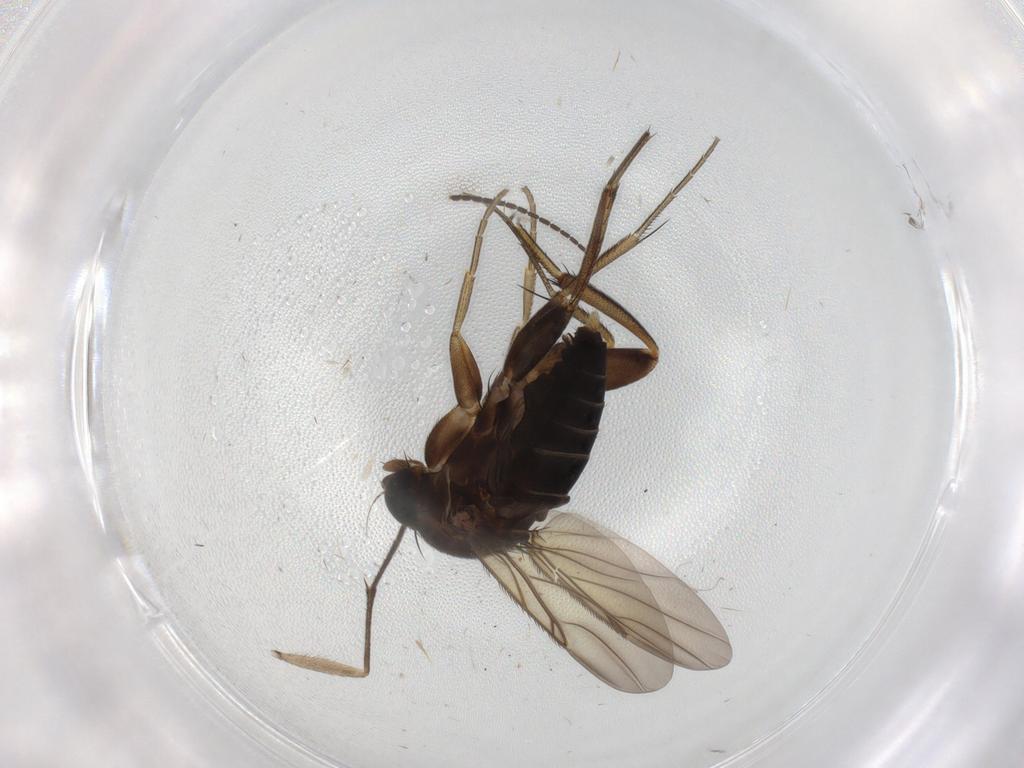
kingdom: Animalia
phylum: Arthropoda
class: Insecta
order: Diptera
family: Sciaridae
